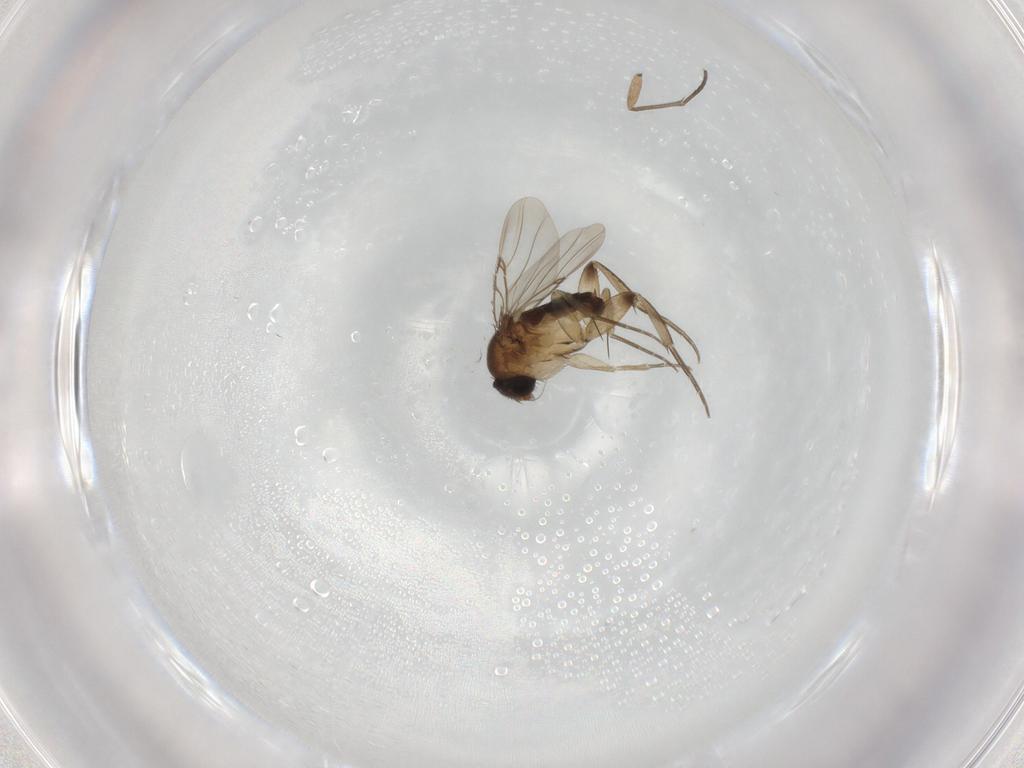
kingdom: Animalia
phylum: Arthropoda
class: Insecta
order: Diptera
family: Phoridae
